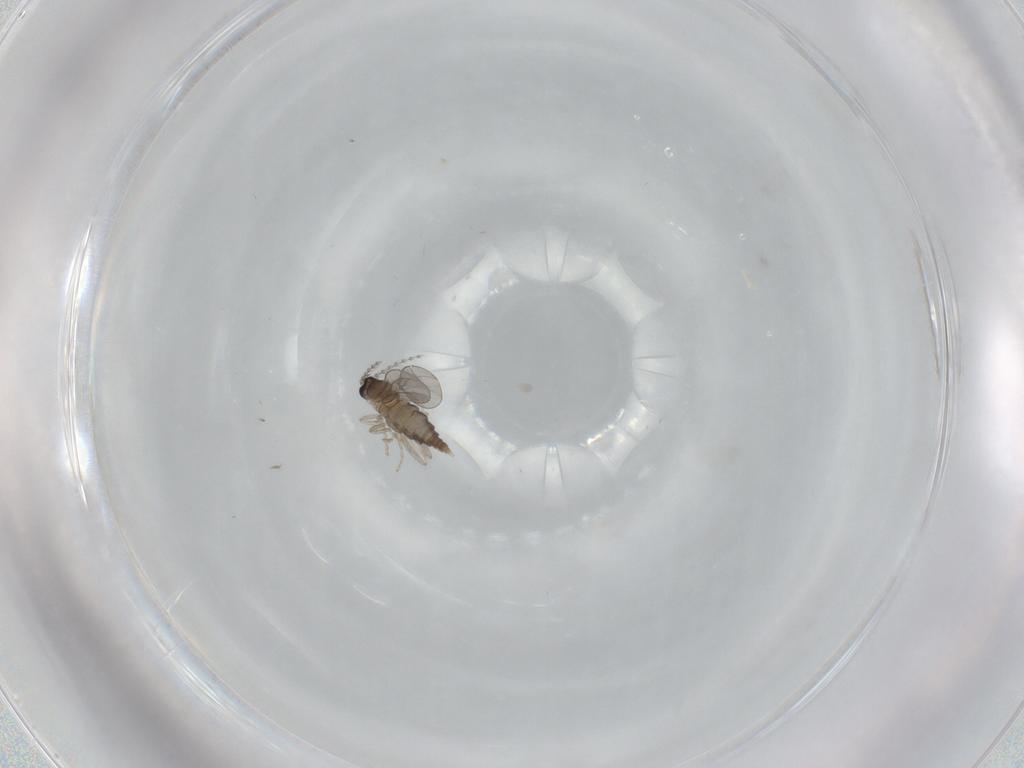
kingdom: Animalia
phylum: Arthropoda
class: Insecta
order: Diptera
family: Cecidomyiidae
